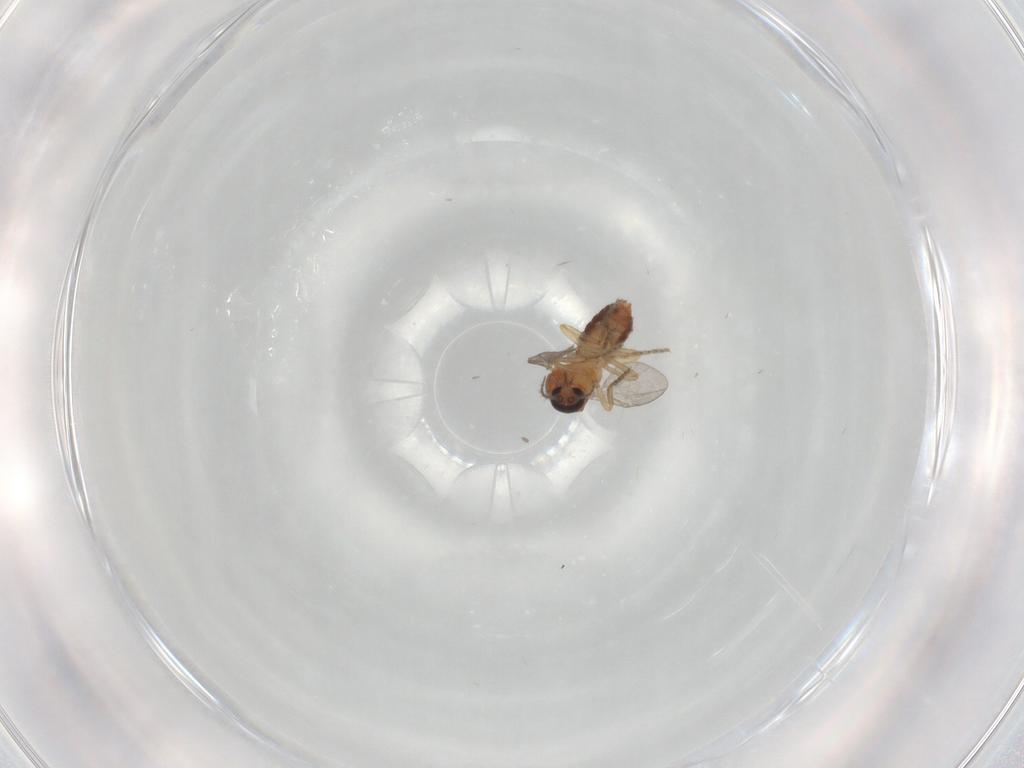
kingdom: Animalia
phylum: Arthropoda
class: Insecta
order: Diptera
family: Ceratopogonidae
